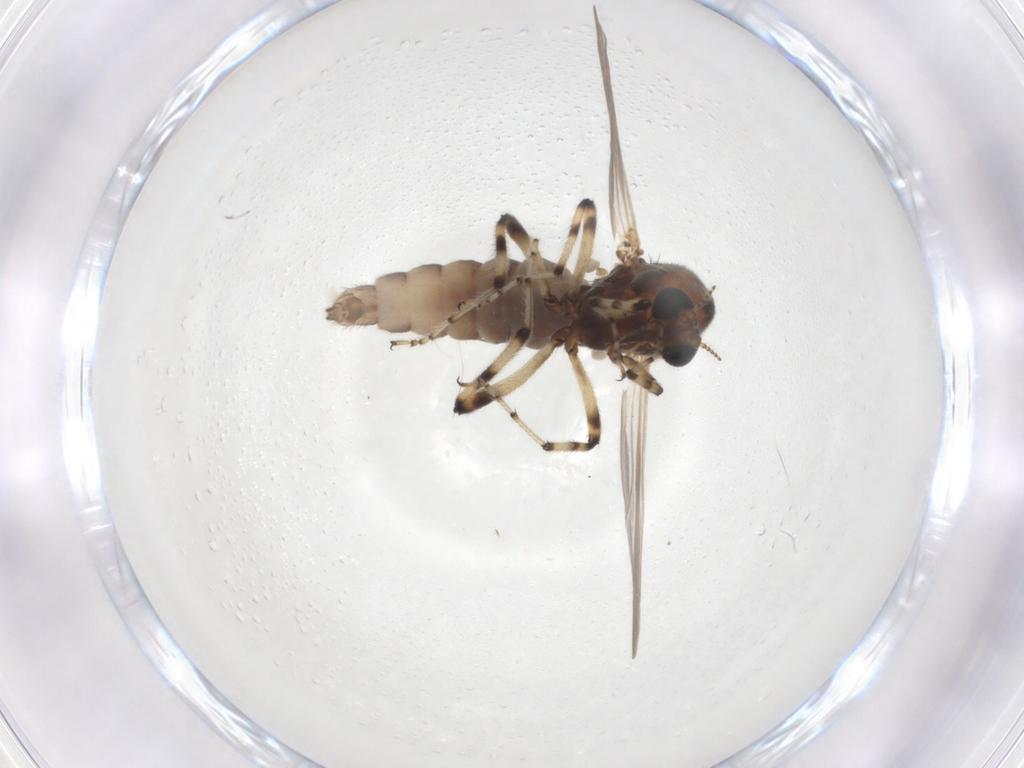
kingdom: Animalia
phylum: Arthropoda
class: Insecta
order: Diptera
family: Ceratopogonidae
